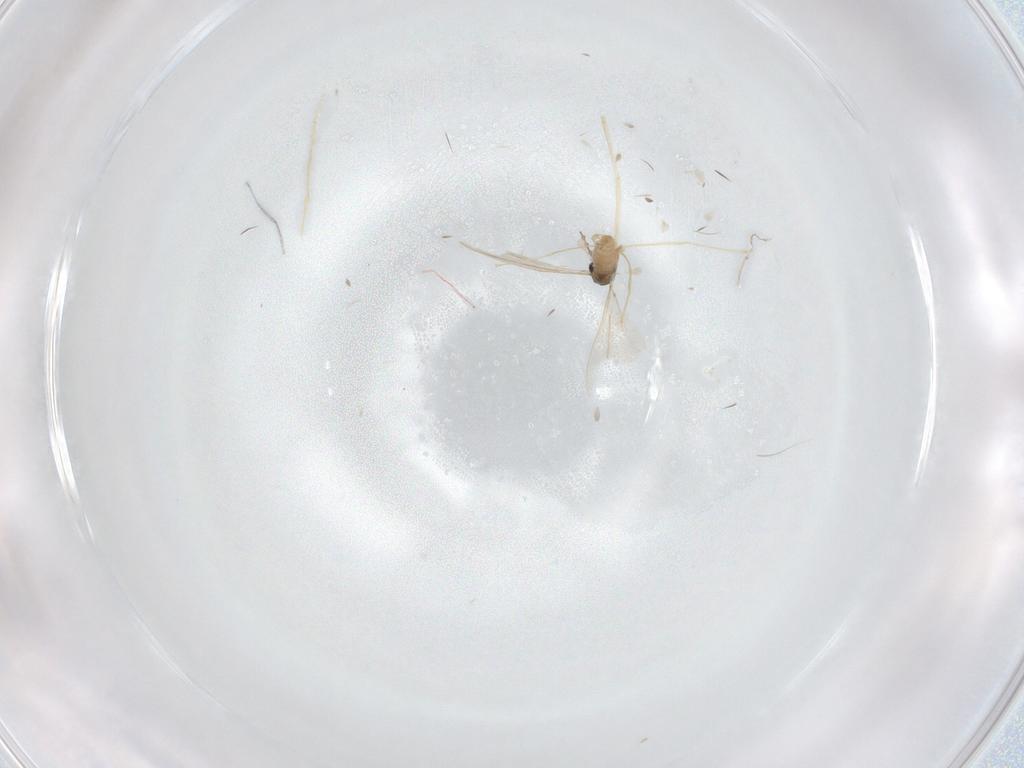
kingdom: Animalia
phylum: Arthropoda
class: Insecta
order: Diptera
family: Cecidomyiidae
